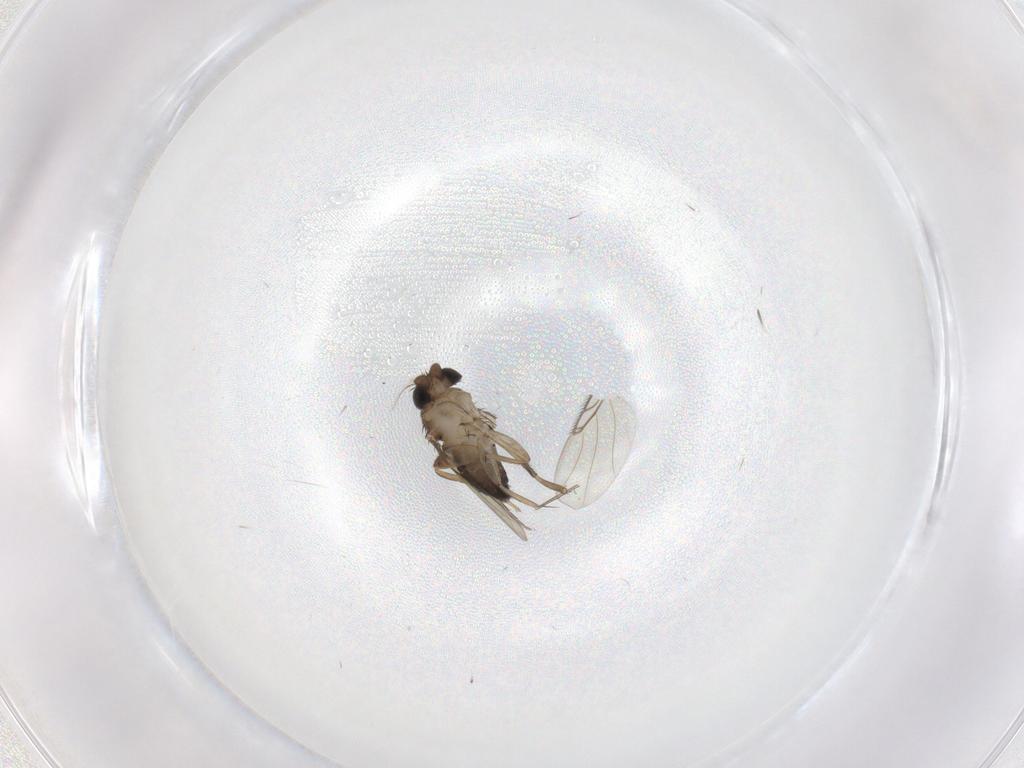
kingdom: Animalia
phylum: Arthropoda
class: Insecta
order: Diptera
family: Phoridae
